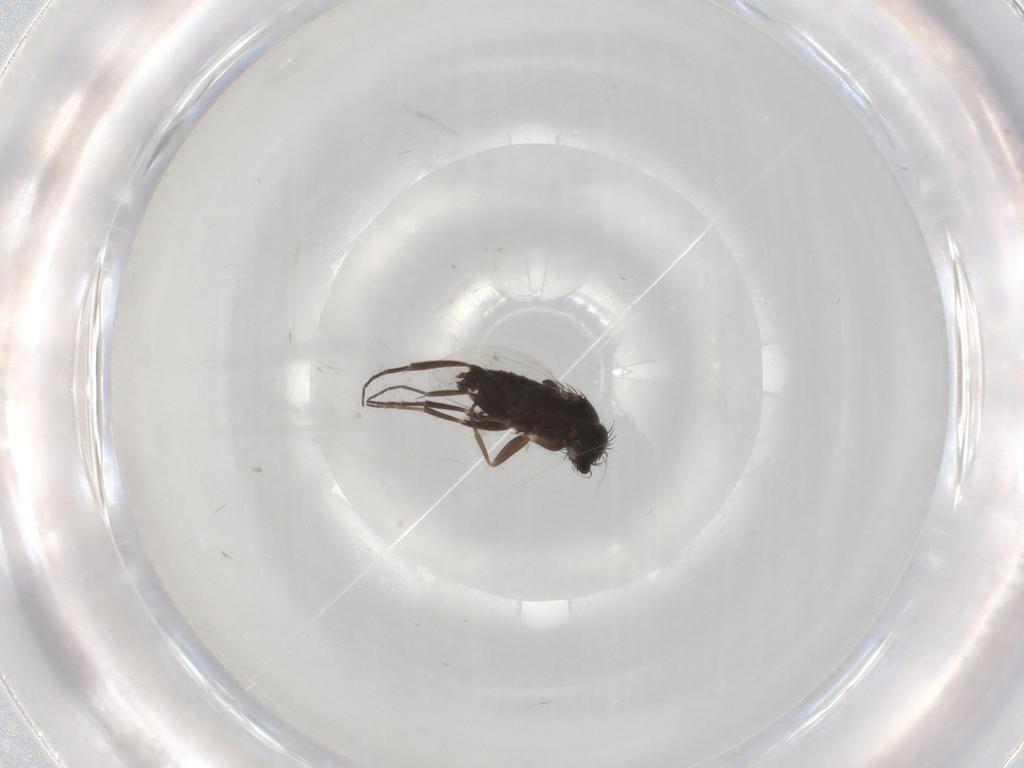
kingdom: Animalia
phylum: Arthropoda
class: Insecta
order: Diptera
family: Phoridae
